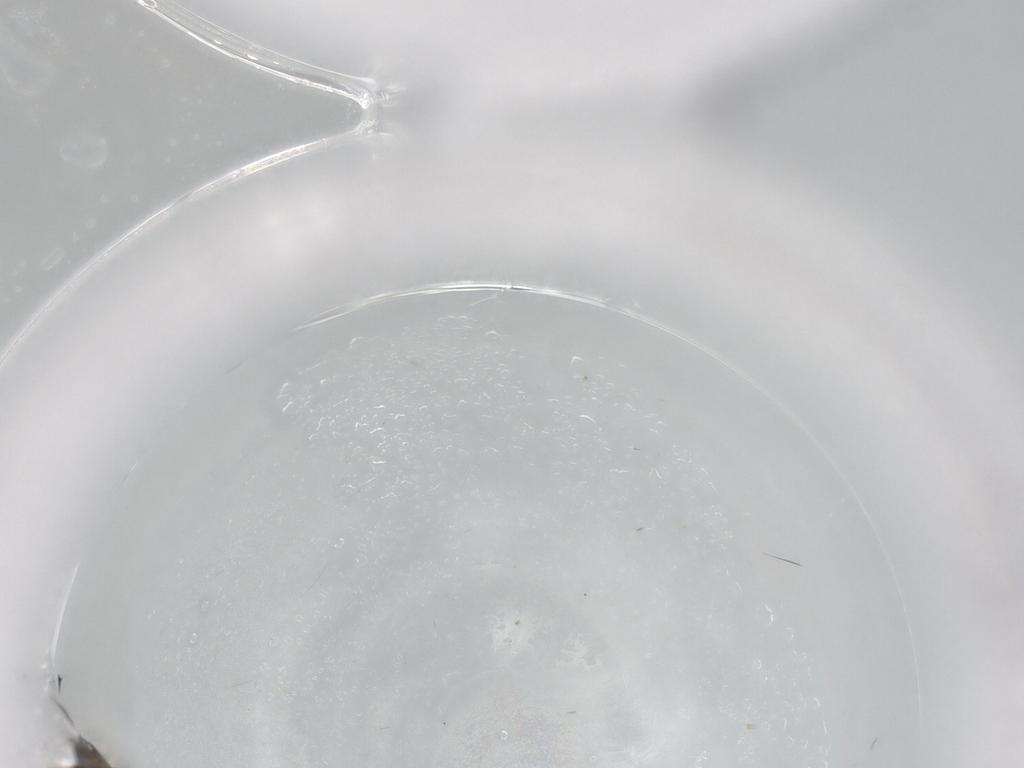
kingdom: Animalia
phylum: Arthropoda
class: Insecta
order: Diptera
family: Phoridae
